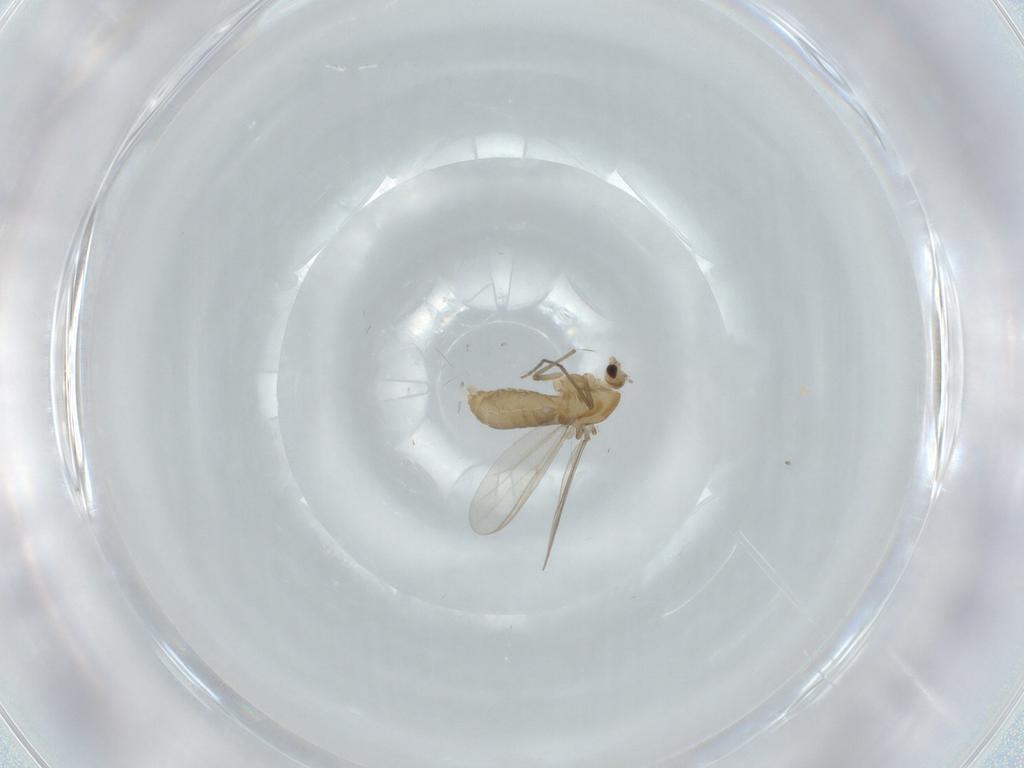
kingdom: Animalia
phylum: Arthropoda
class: Insecta
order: Diptera
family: Chironomidae
